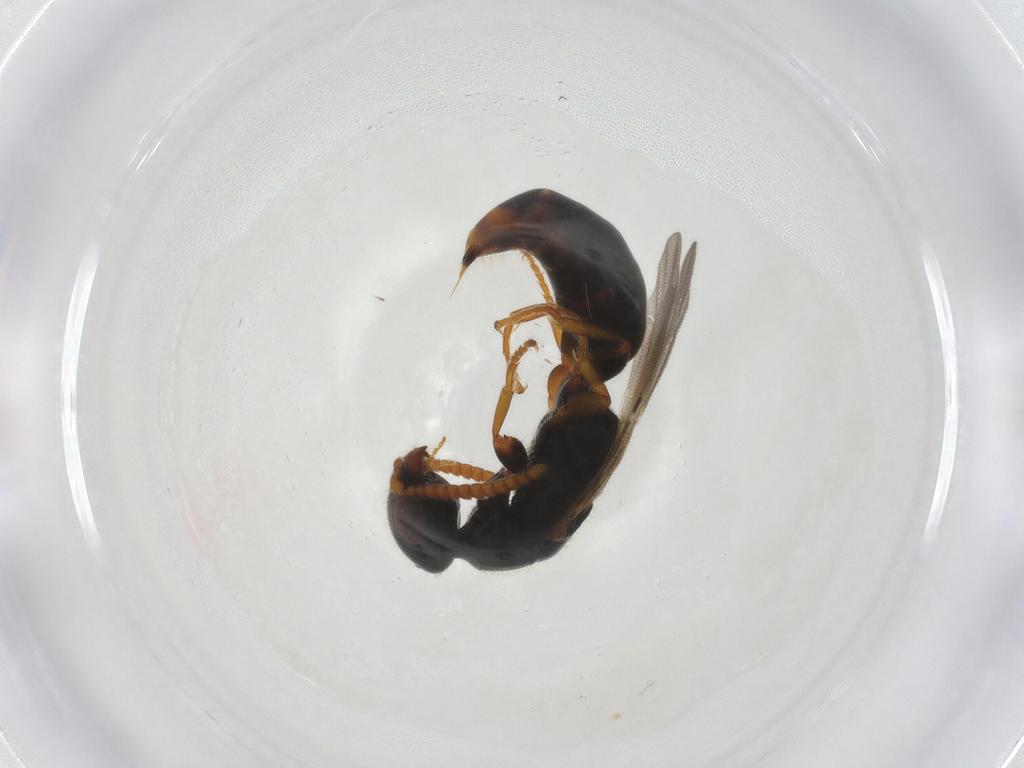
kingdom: Animalia
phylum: Arthropoda
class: Insecta
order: Hymenoptera
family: Bethylidae
